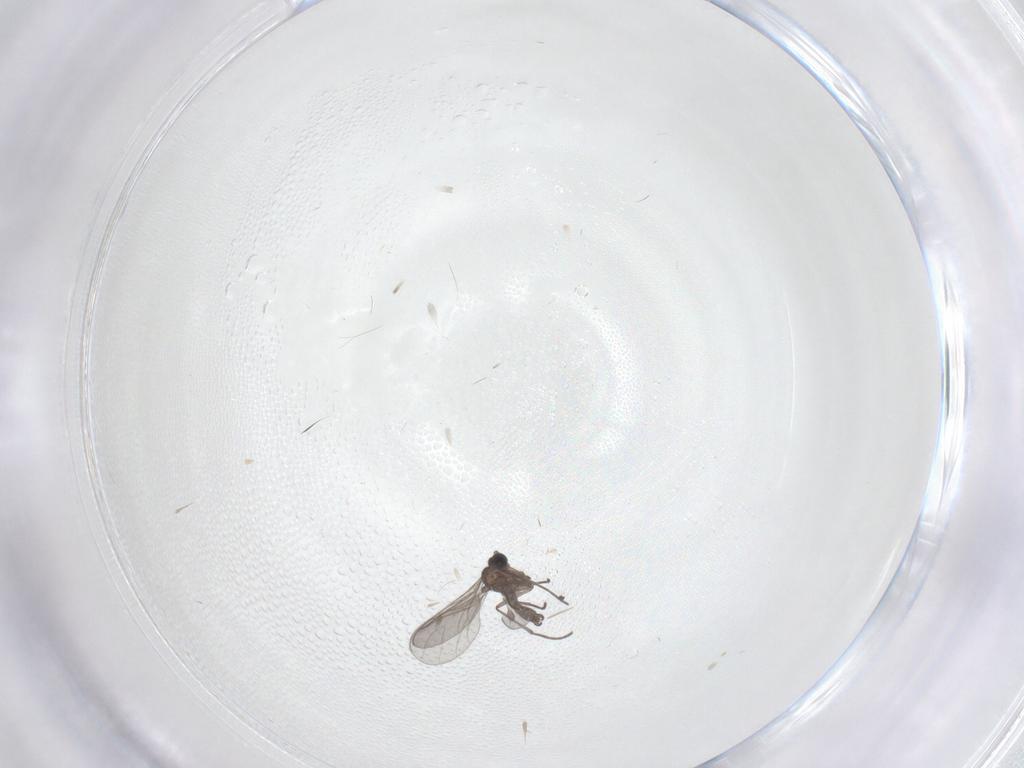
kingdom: Animalia
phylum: Arthropoda
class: Insecta
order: Diptera
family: Sciaridae
